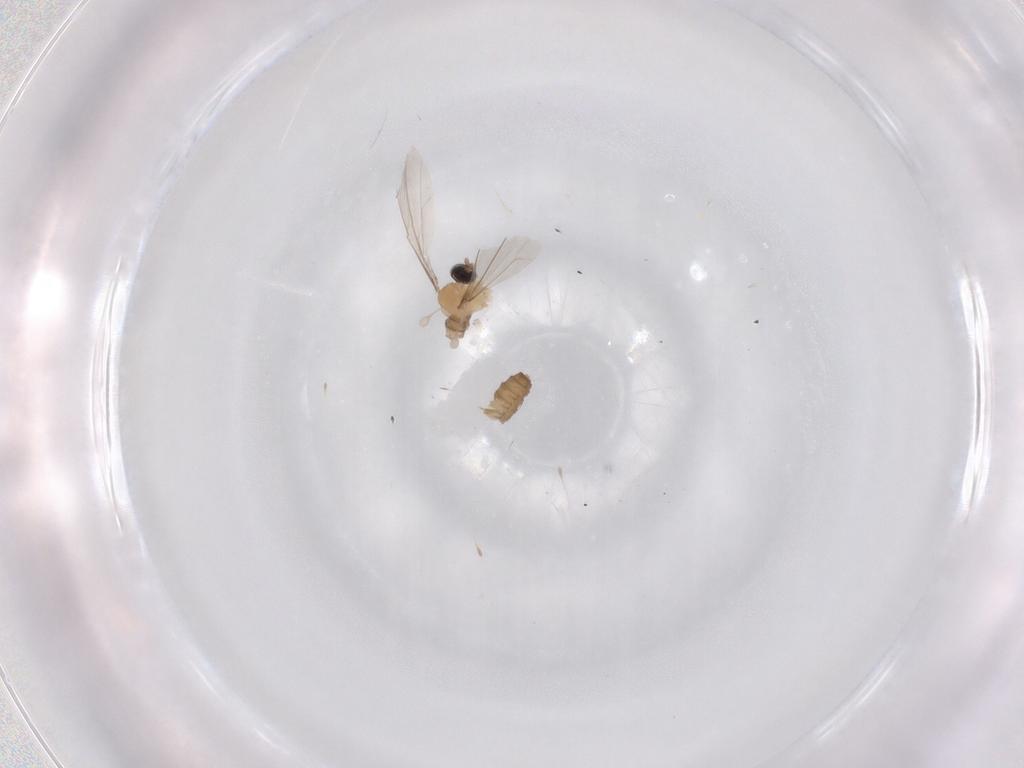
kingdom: Animalia
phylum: Arthropoda
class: Insecta
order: Diptera
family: Cecidomyiidae
